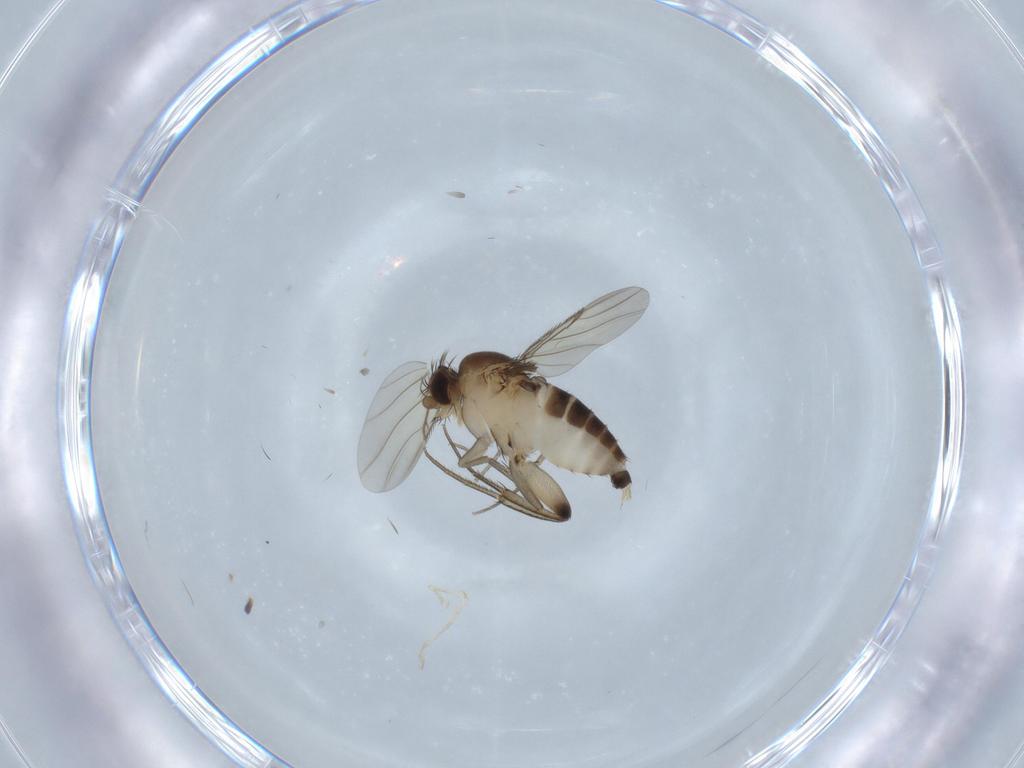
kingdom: Animalia
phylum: Arthropoda
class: Insecta
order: Diptera
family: Phoridae
